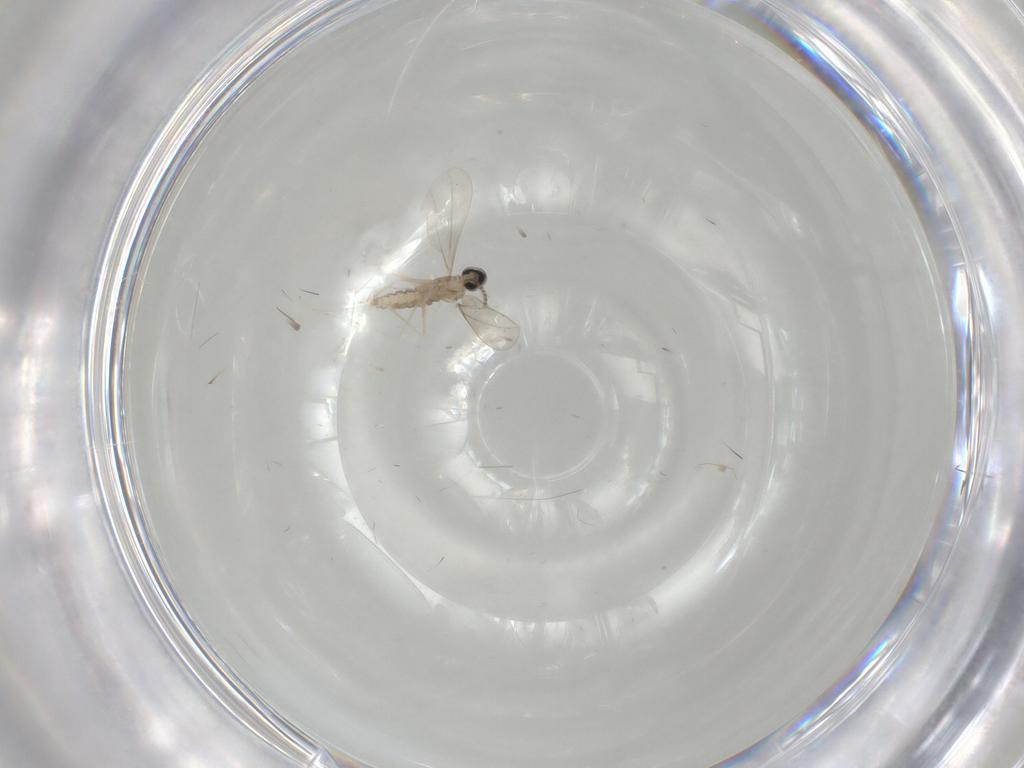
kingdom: Animalia
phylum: Arthropoda
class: Insecta
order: Diptera
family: Cecidomyiidae
